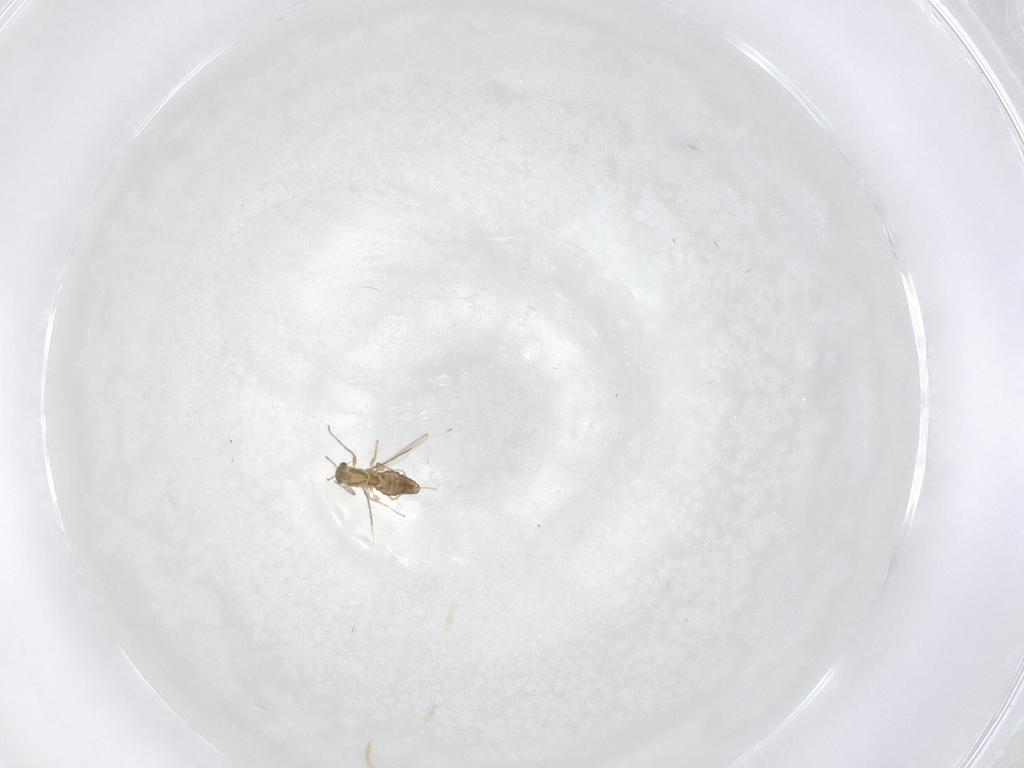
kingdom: Animalia
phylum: Arthropoda
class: Insecta
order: Diptera
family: Chironomidae
